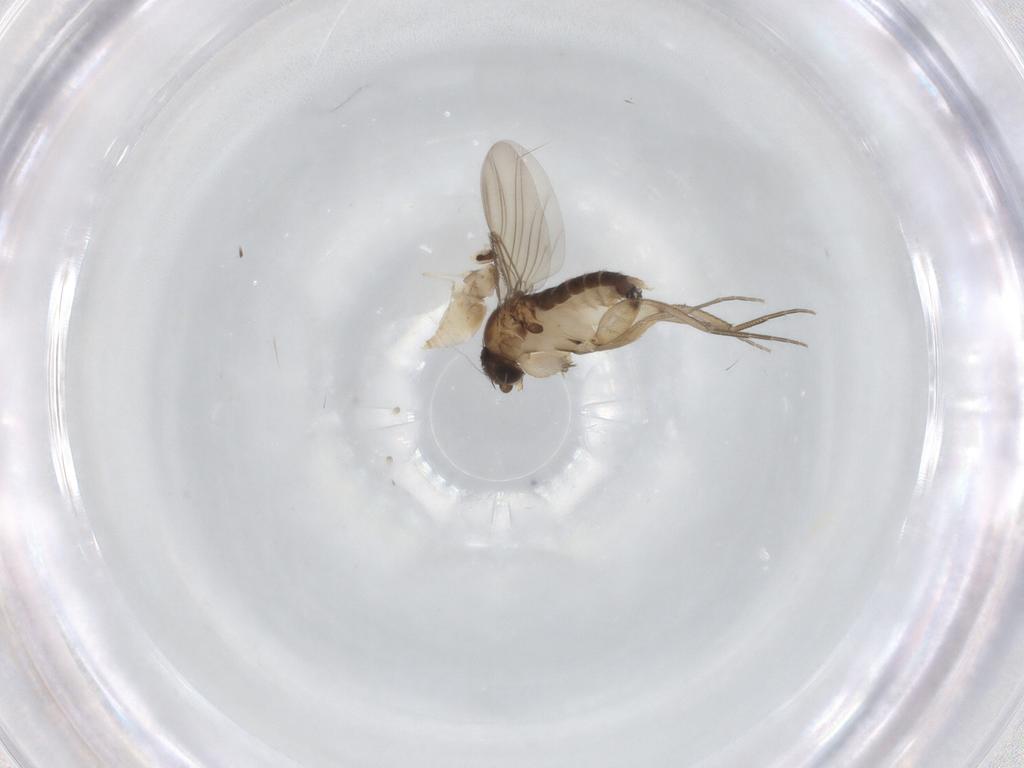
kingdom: Animalia
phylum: Arthropoda
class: Insecta
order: Diptera
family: Cecidomyiidae
